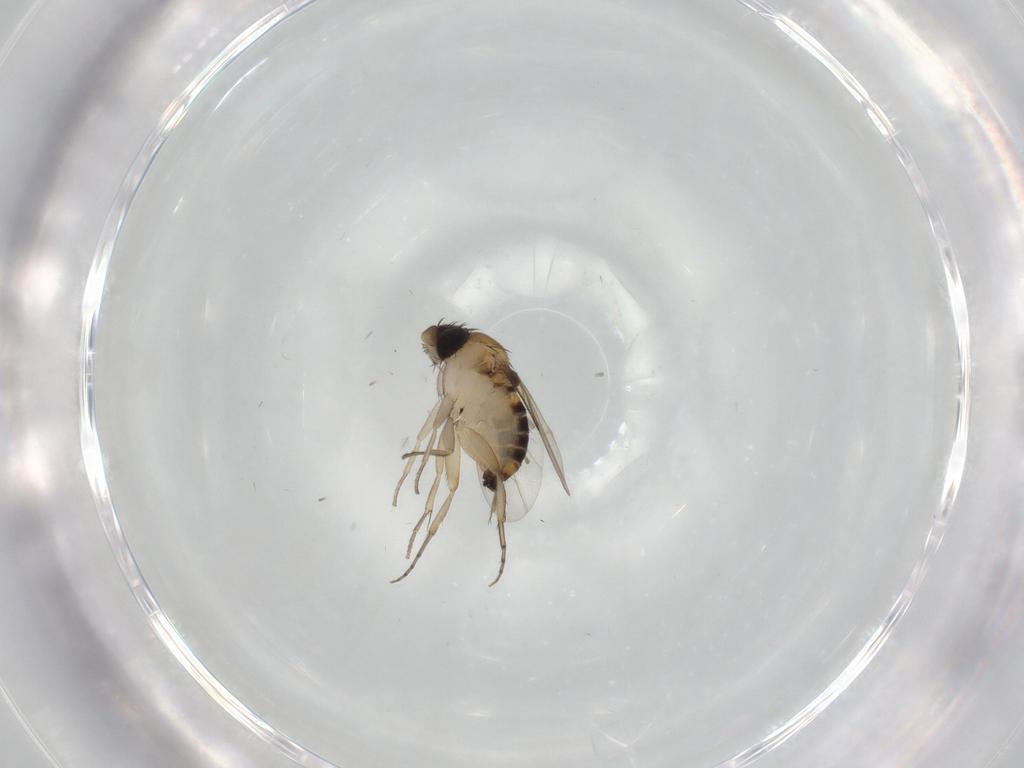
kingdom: Animalia
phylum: Arthropoda
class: Insecta
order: Diptera
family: Phoridae
